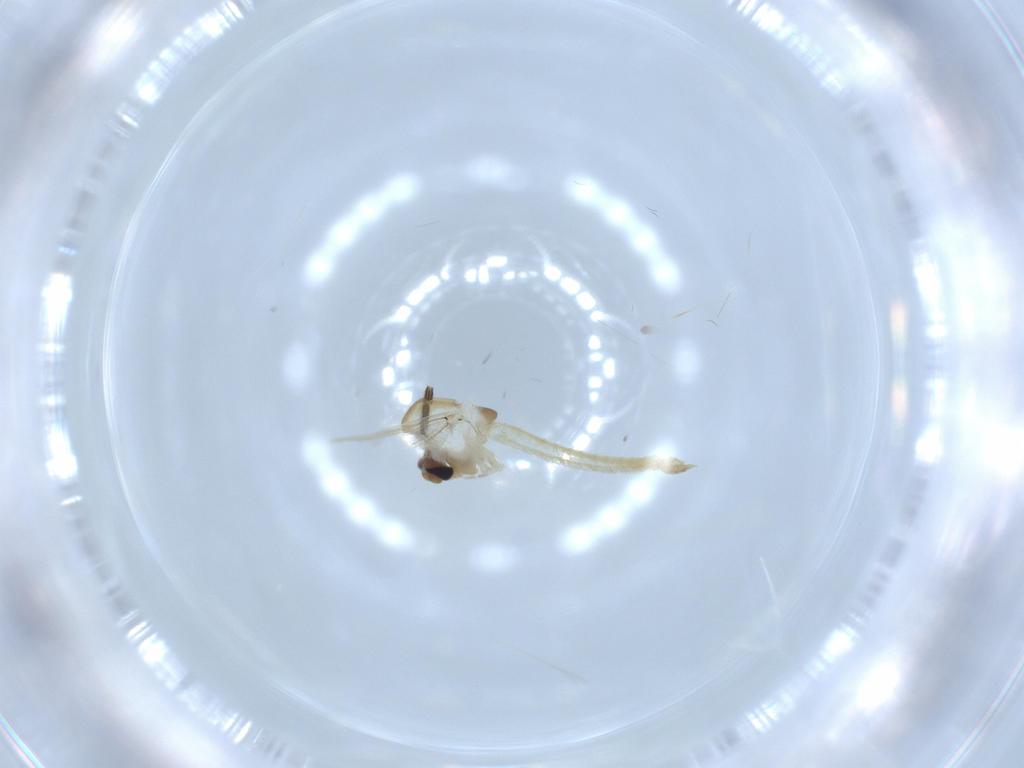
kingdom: Animalia
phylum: Arthropoda
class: Insecta
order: Diptera
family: Chironomidae
